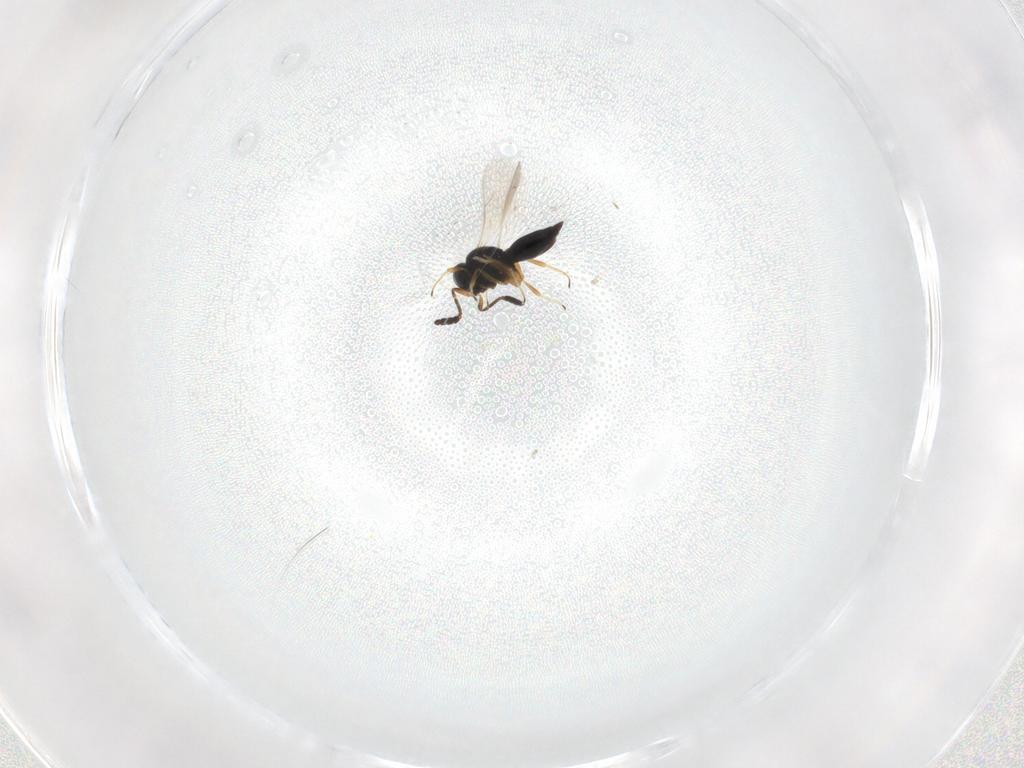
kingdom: Animalia
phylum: Arthropoda
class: Insecta
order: Hymenoptera
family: Scelionidae
